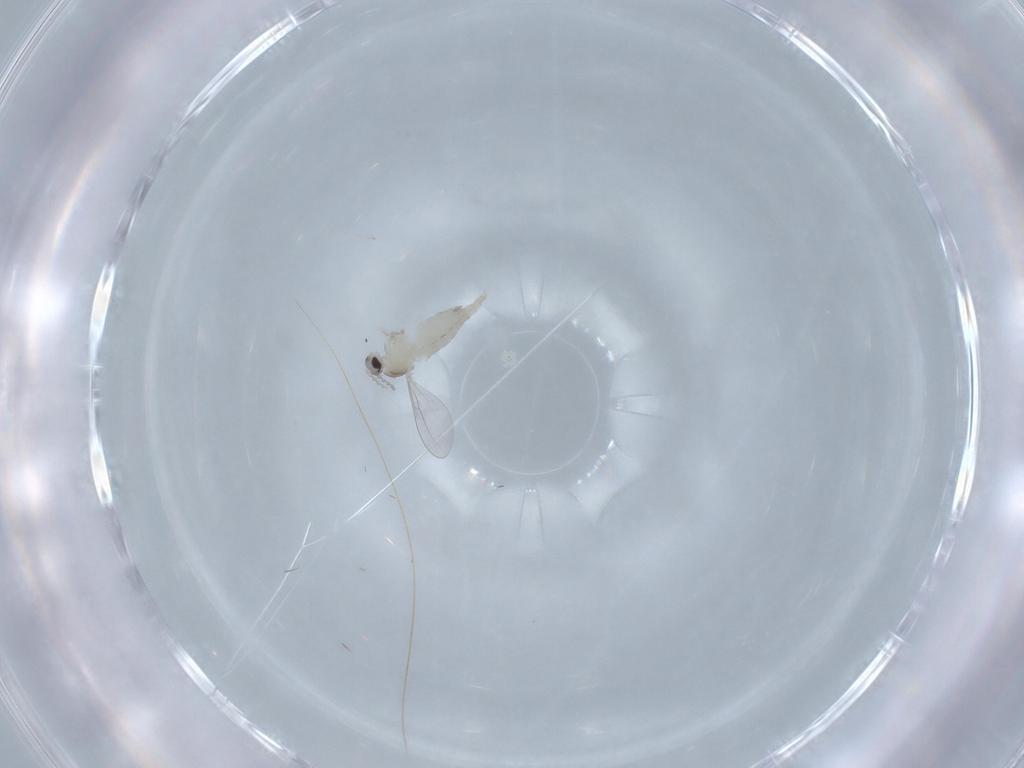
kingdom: Animalia
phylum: Arthropoda
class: Insecta
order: Diptera
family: Cecidomyiidae
